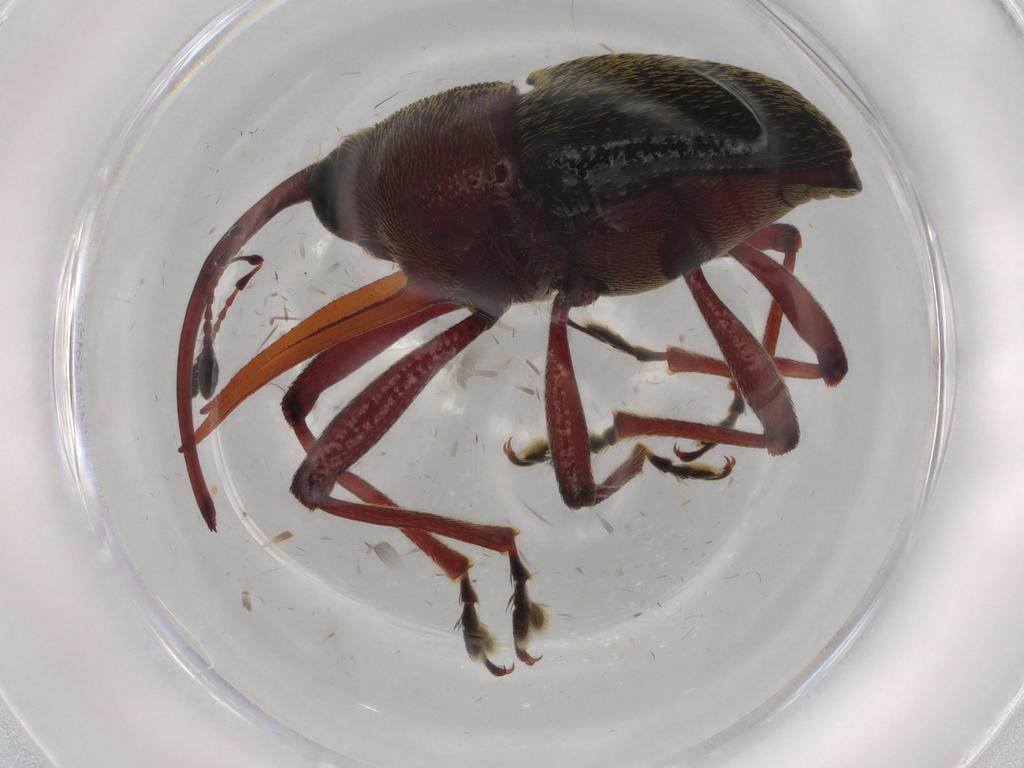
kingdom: Animalia
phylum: Arthropoda
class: Insecta
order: Coleoptera
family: Curculionidae
